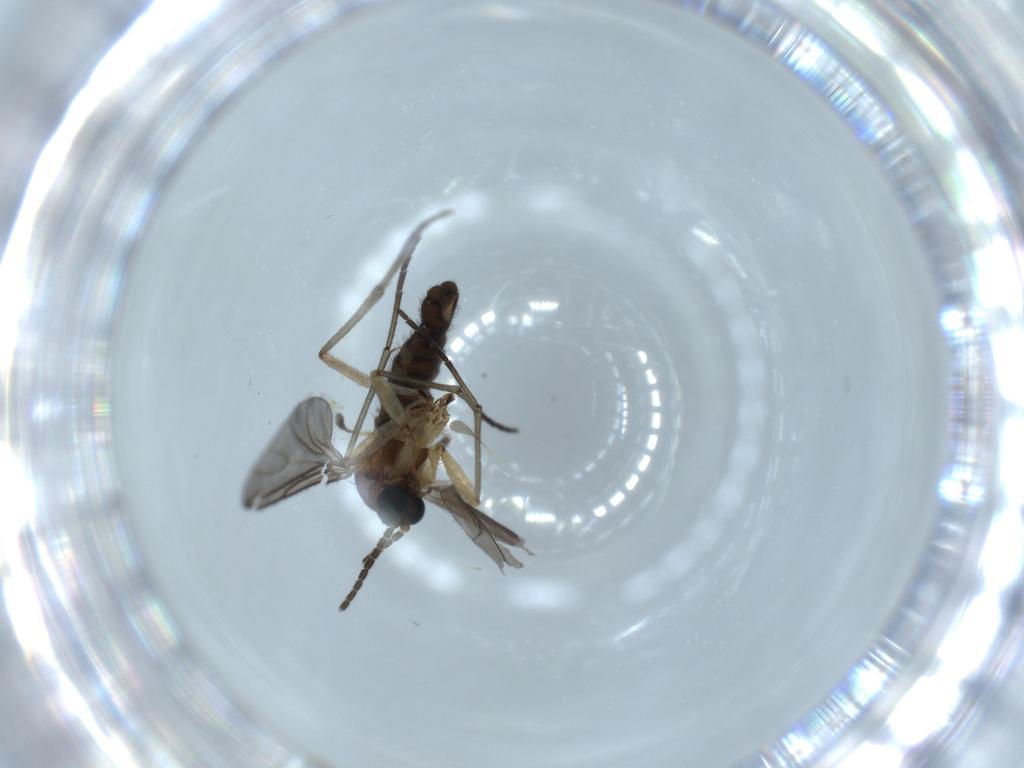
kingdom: Animalia
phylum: Arthropoda
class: Insecta
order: Diptera
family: Sciaridae
